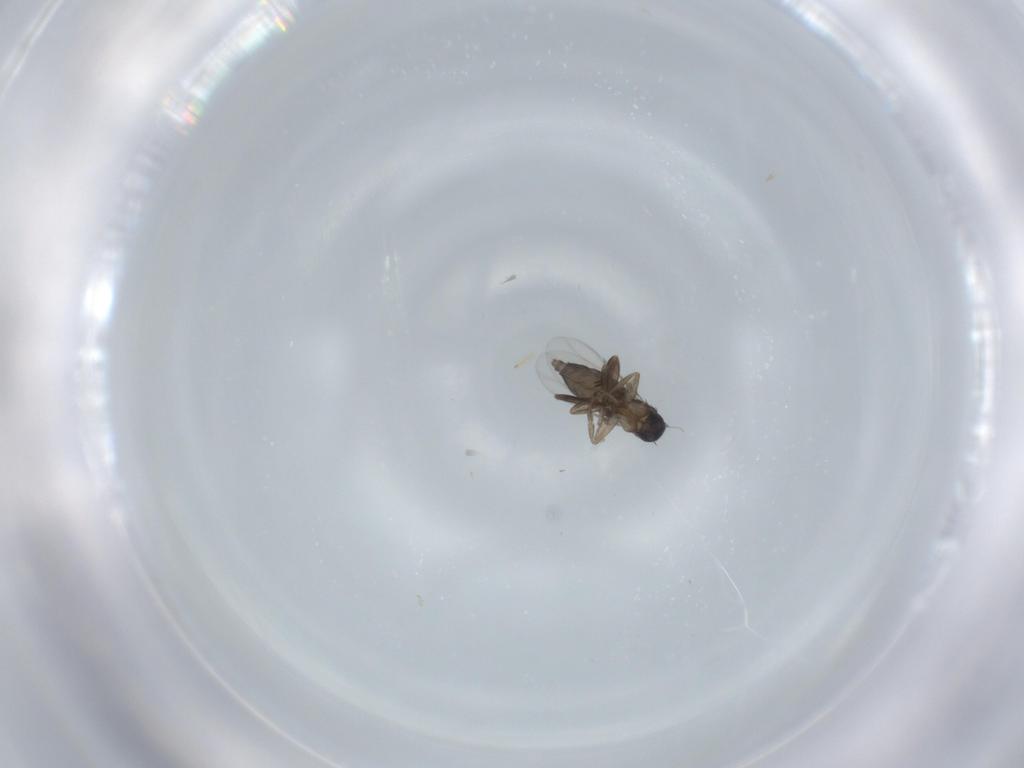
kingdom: Animalia
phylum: Arthropoda
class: Insecta
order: Diptera
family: Phoridae
